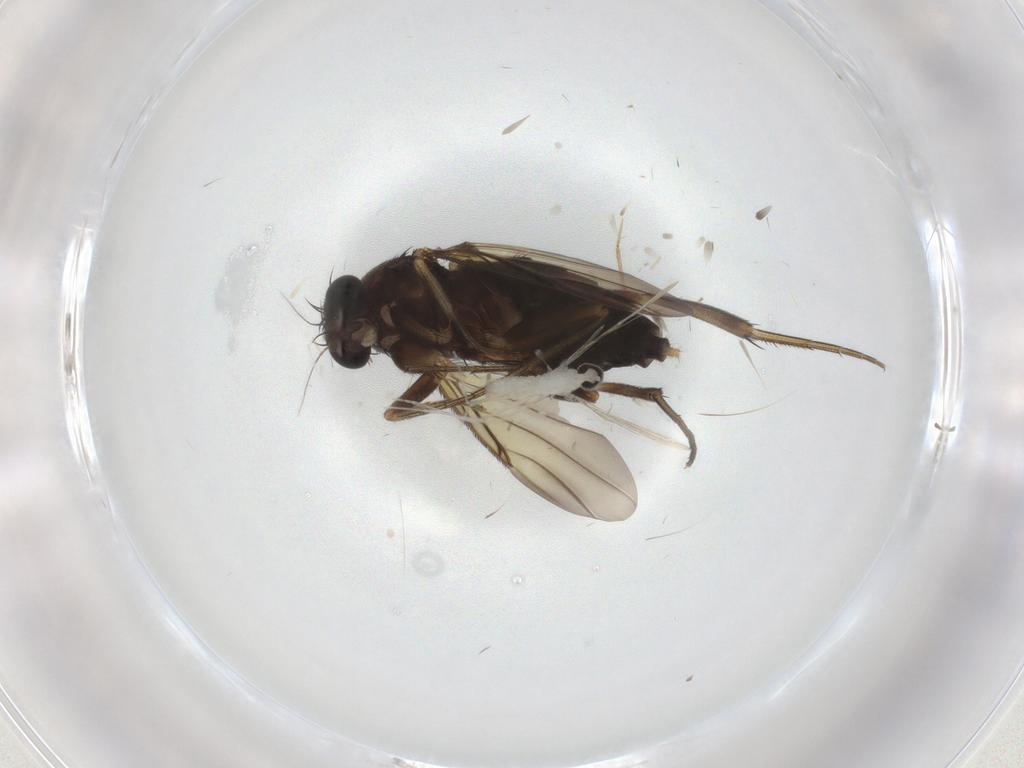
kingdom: Animalia
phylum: Arthropoda
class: Insecta
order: Diptera
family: Phoridae
